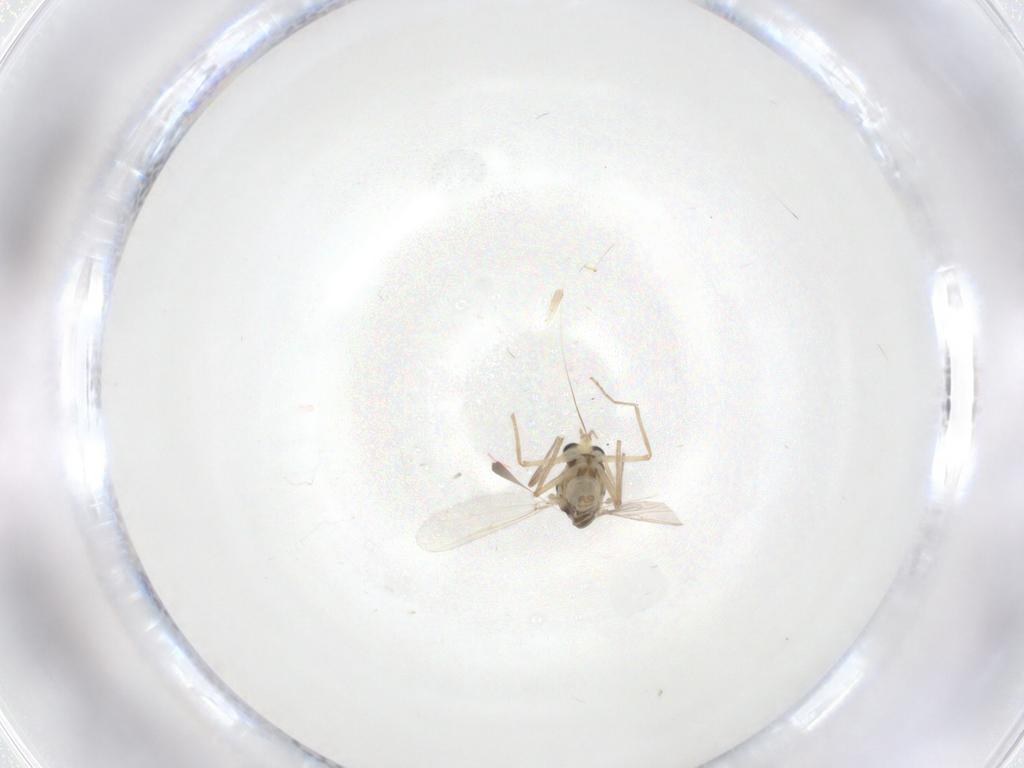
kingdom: Animalia
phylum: Arthropoda
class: Insecta
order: Diptera
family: Chironomidae
